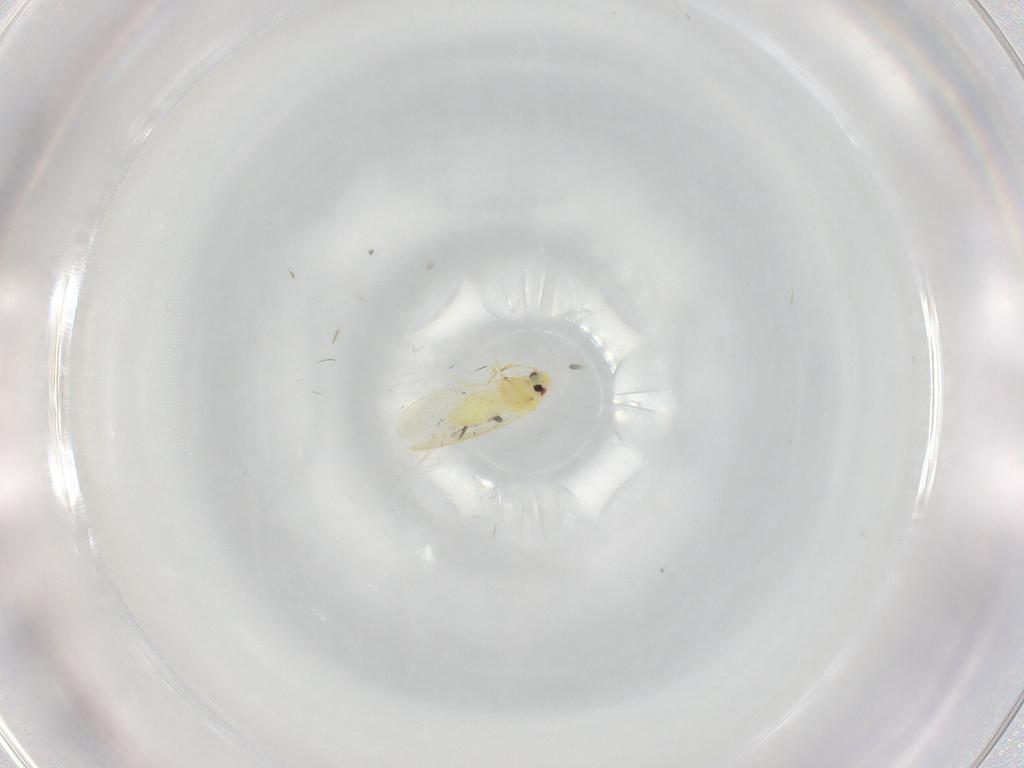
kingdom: Animalia
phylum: Arthropoda
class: Insecta
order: Hemiptera
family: Aleyrodidae
